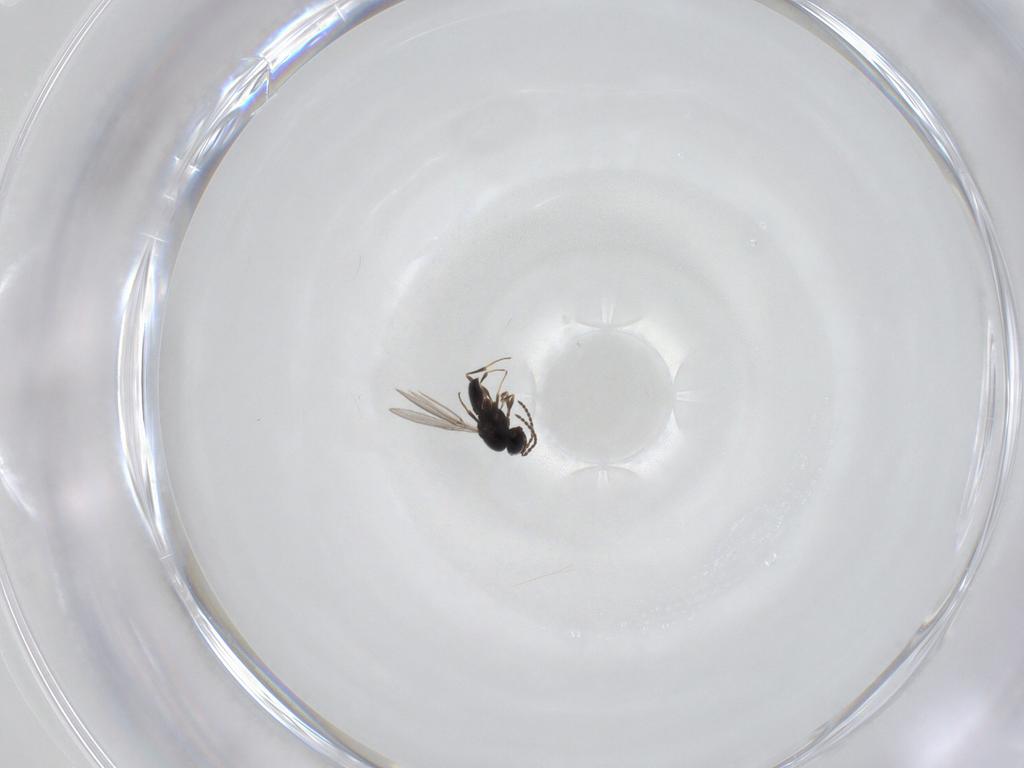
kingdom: Animalia
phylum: Arthropoda
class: Insecta
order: Hymenoptera
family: Scelionidae
